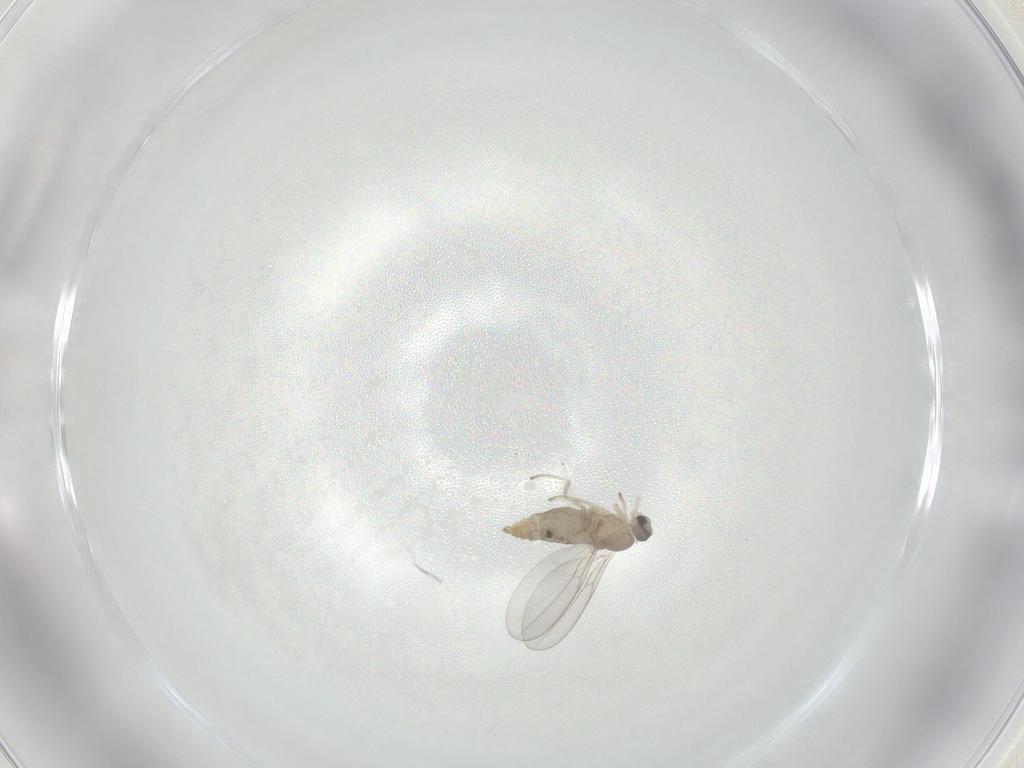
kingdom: Animalia
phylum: Arthropoda
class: Insecta
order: Diptera
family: Cecidomyiidae
